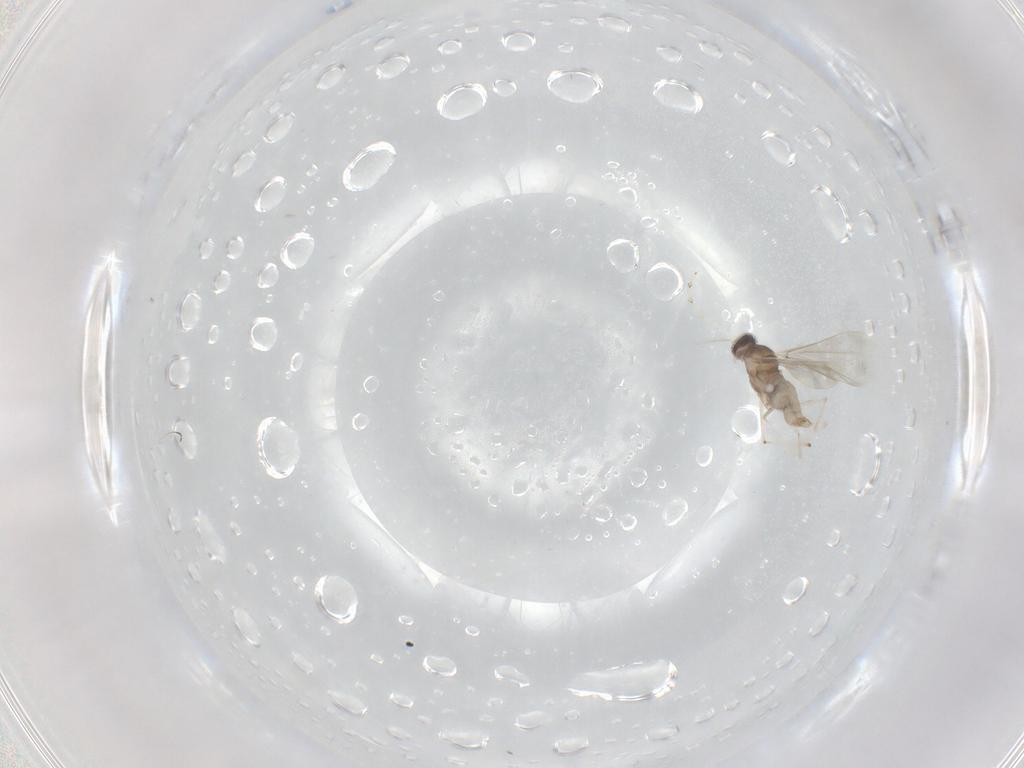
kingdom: Animalia
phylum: Arthropoda
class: Insecta
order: Diptera
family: Cecidomyiidae
